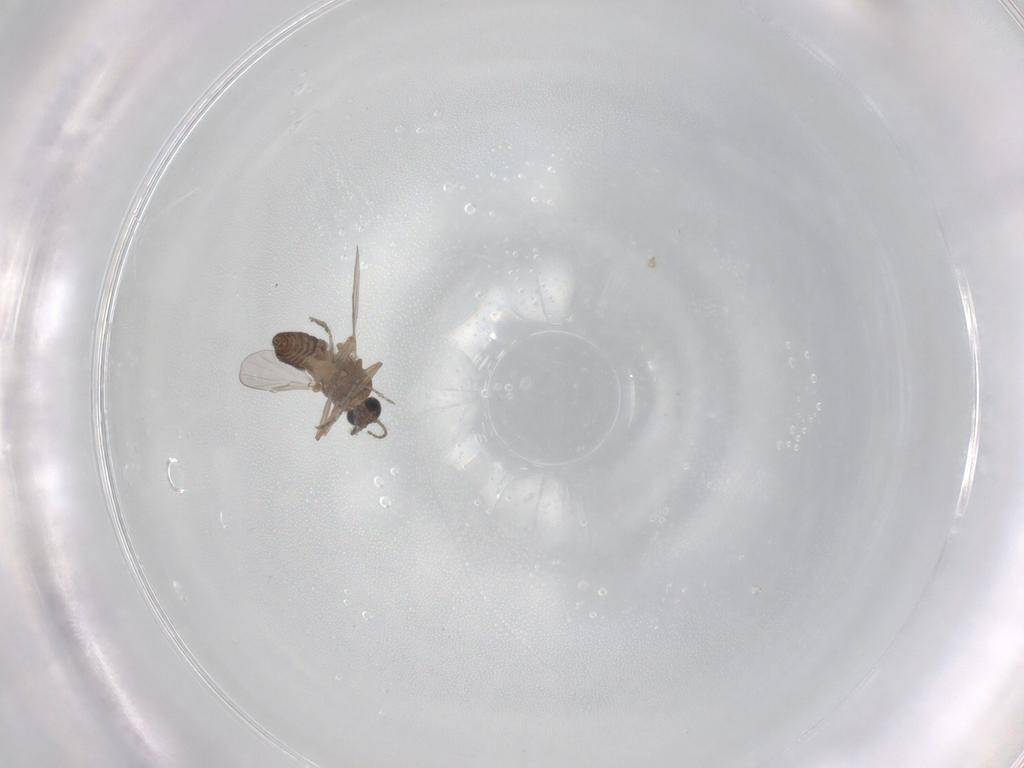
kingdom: Animalia
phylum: Arthropoda
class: Insecta
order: Diptera
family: Ceratopogonidae
